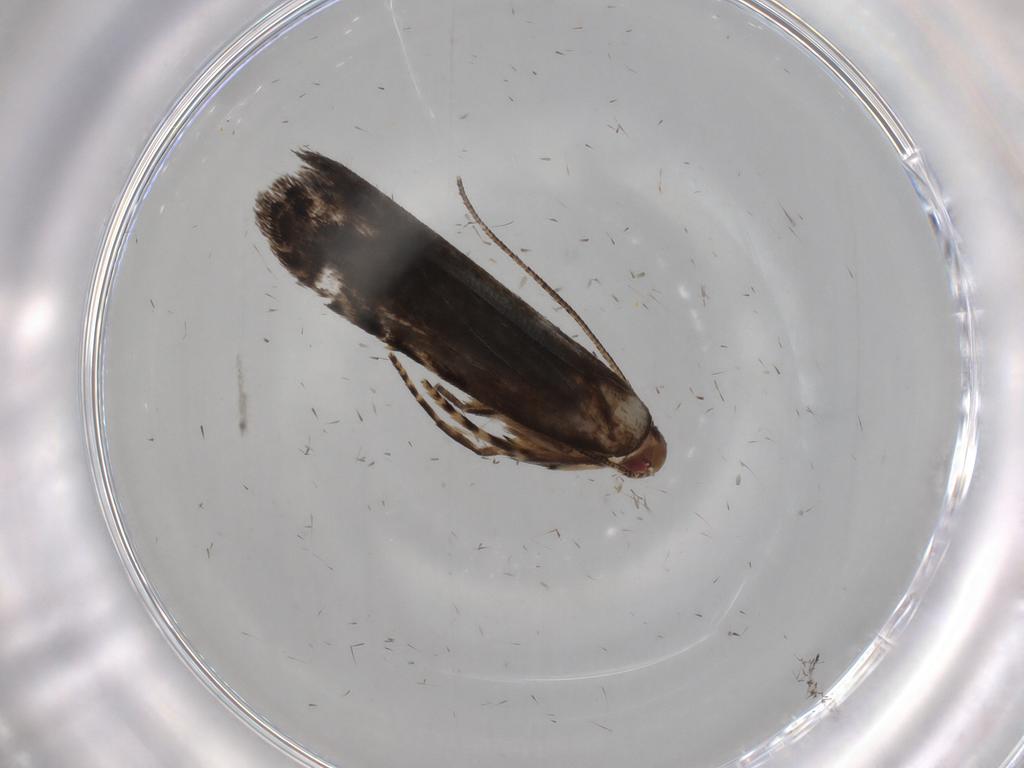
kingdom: Animalia
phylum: Arthropoda
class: Insecta
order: Lepidoptera
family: Gelechiidae
